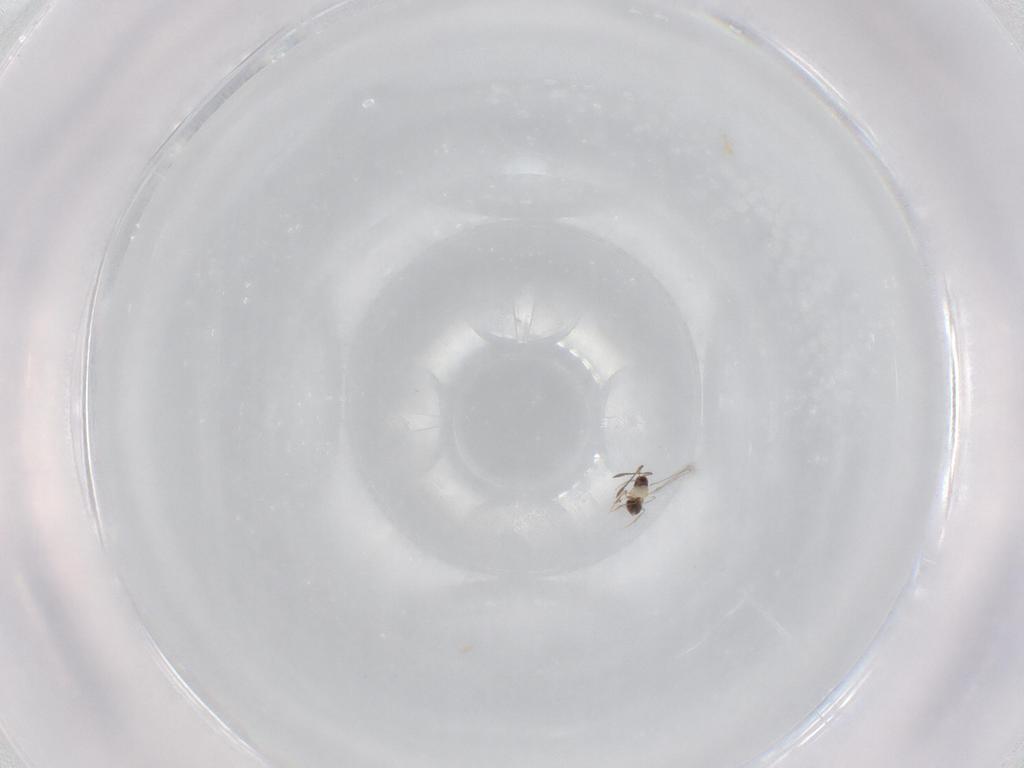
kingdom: Animalia
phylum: Arthropoda
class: Insecta
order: Hymenoptera
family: Mymaridae
